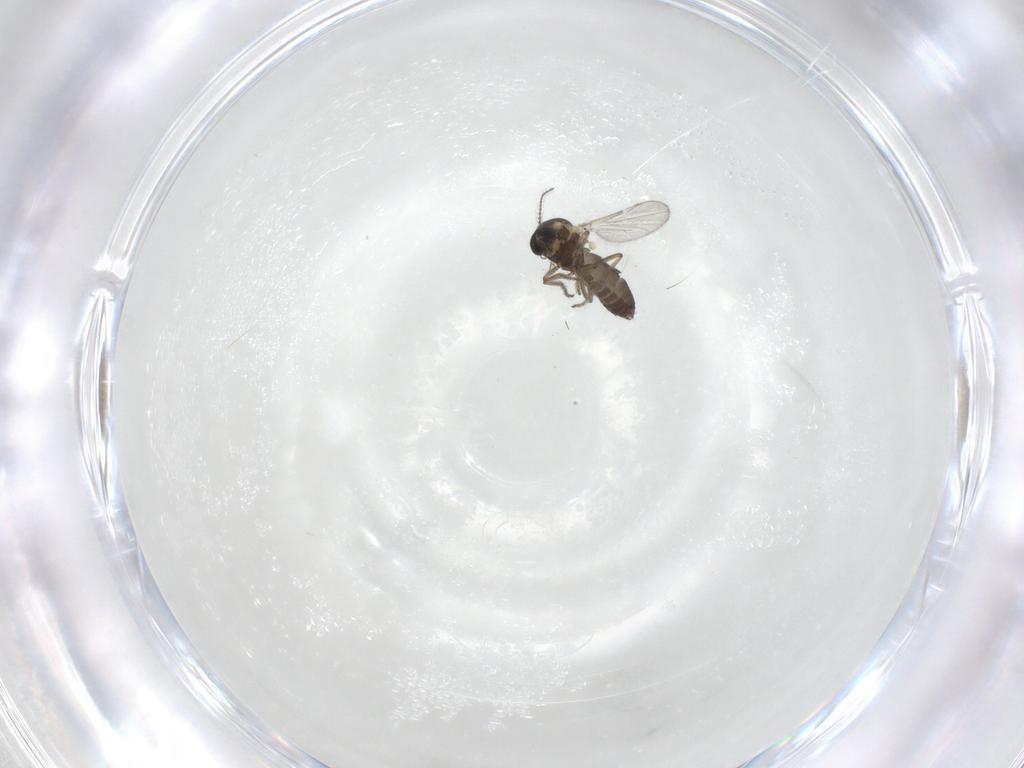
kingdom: Animalia
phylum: Arthropoda
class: Insecta
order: Diptera
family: Ceratopogonidae
